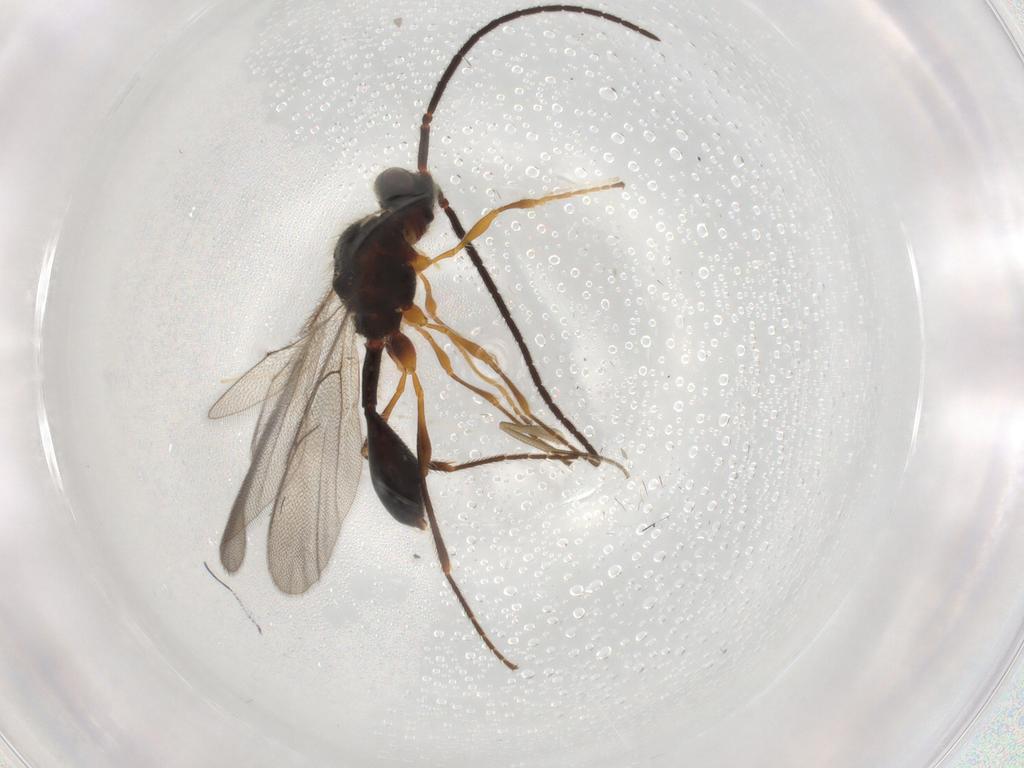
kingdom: Animalia
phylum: Arthropoda
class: Insecta
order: Hymenoptera
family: Diapriidae
